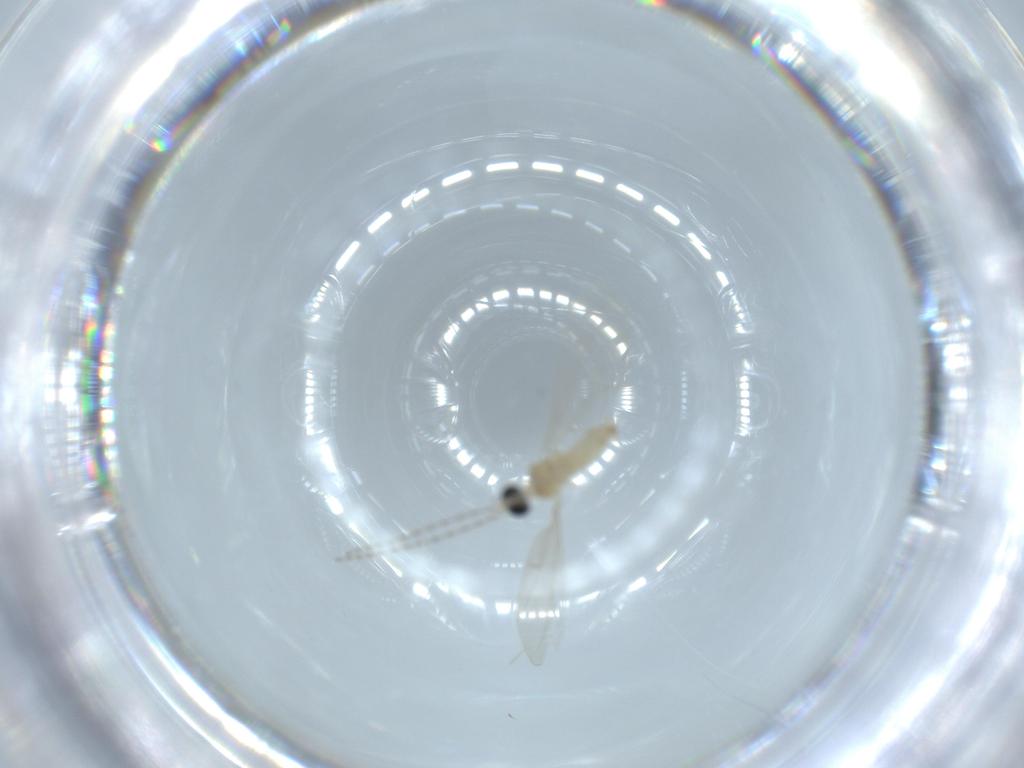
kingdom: Animalia
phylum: Arthropoda
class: Insecta
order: Diptera
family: Cecidomyiidae
